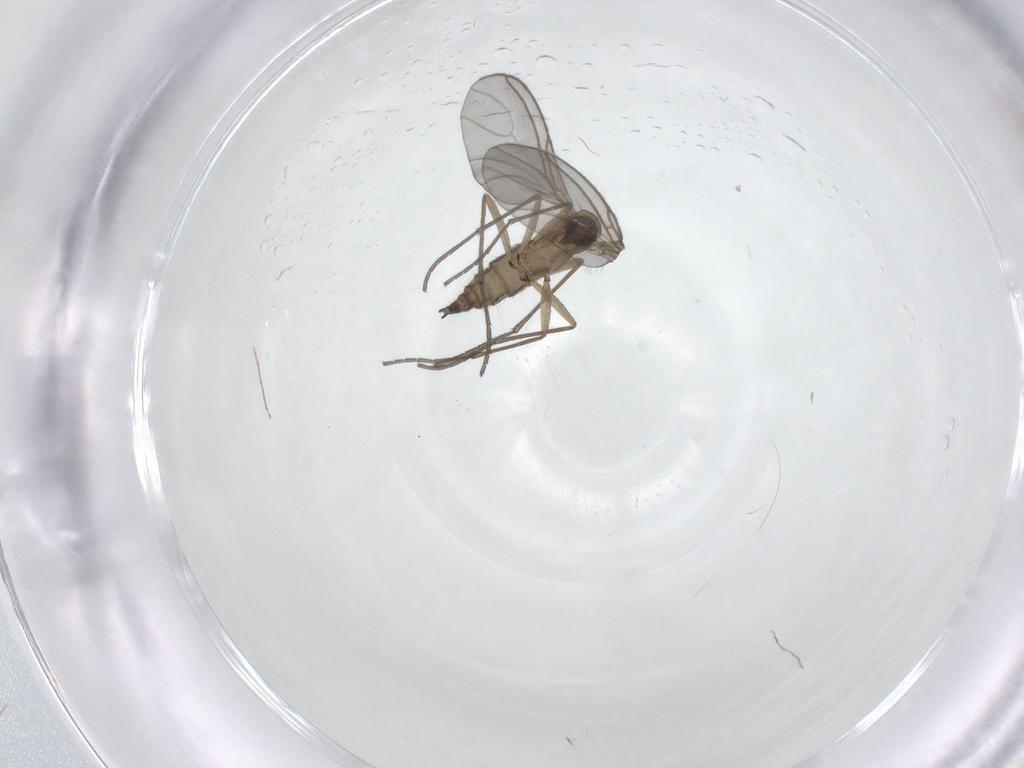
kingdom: Animalia
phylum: Arthropoda
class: Insecta
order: Diptera
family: Sciaridae
